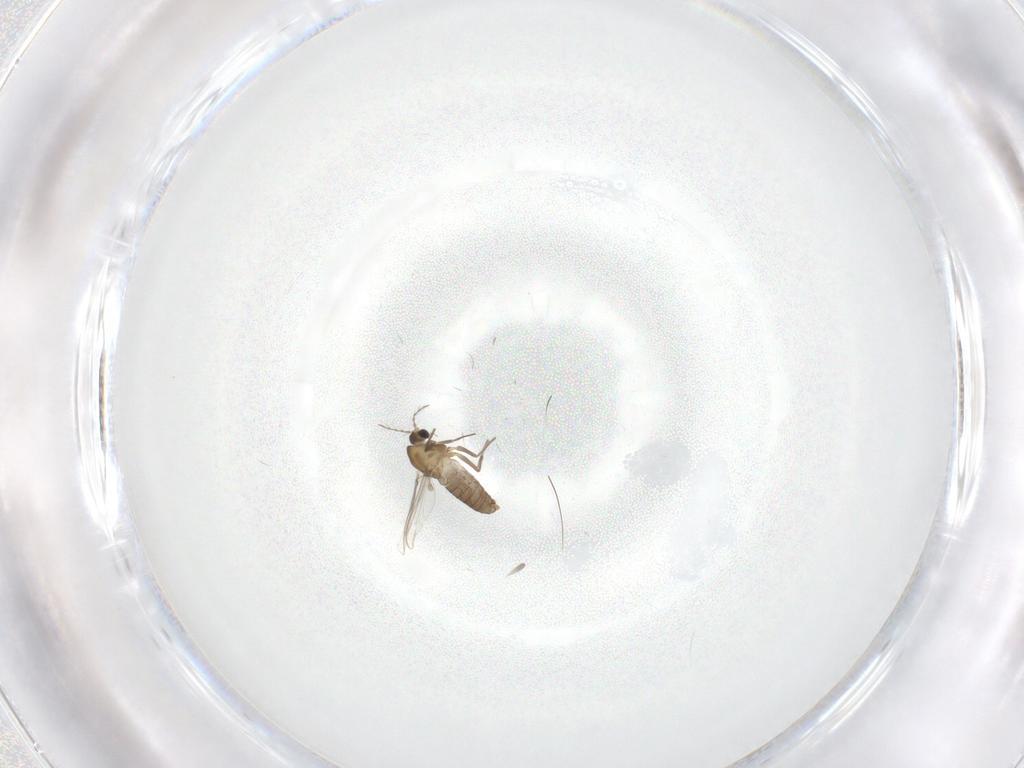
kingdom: Animalia
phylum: Arthropoda
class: Insecta
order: Diptera
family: Chironomidae
